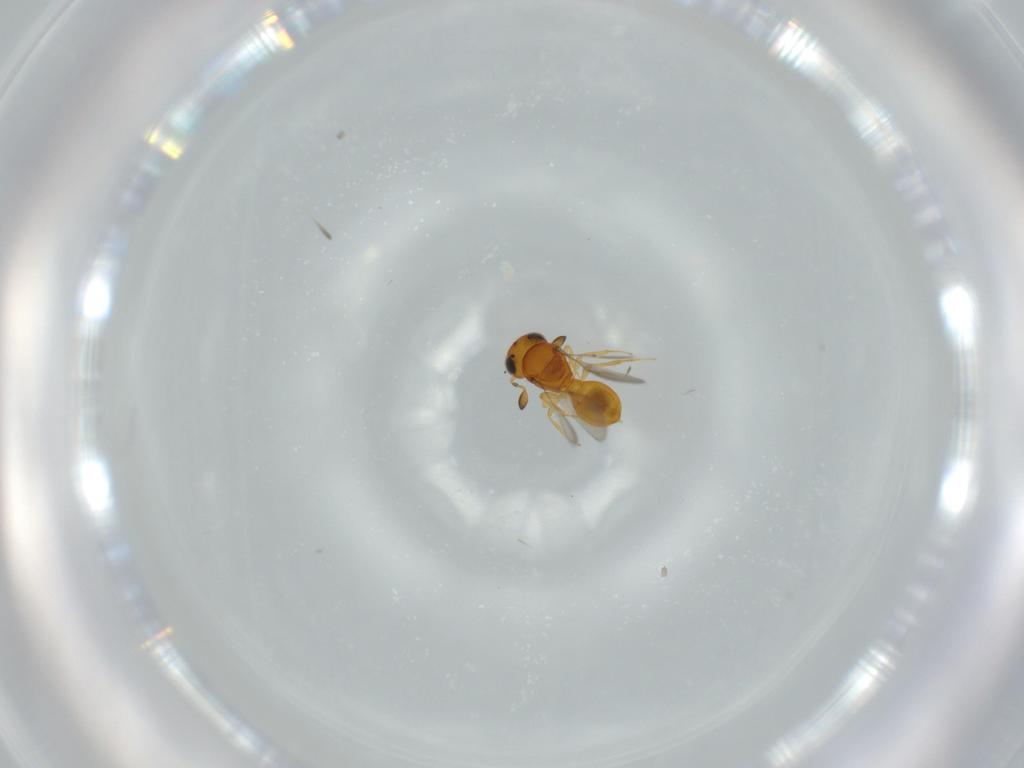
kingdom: Animalia
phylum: Arthropoda
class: Insecta
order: Hymenoptera
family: Scelionidae
